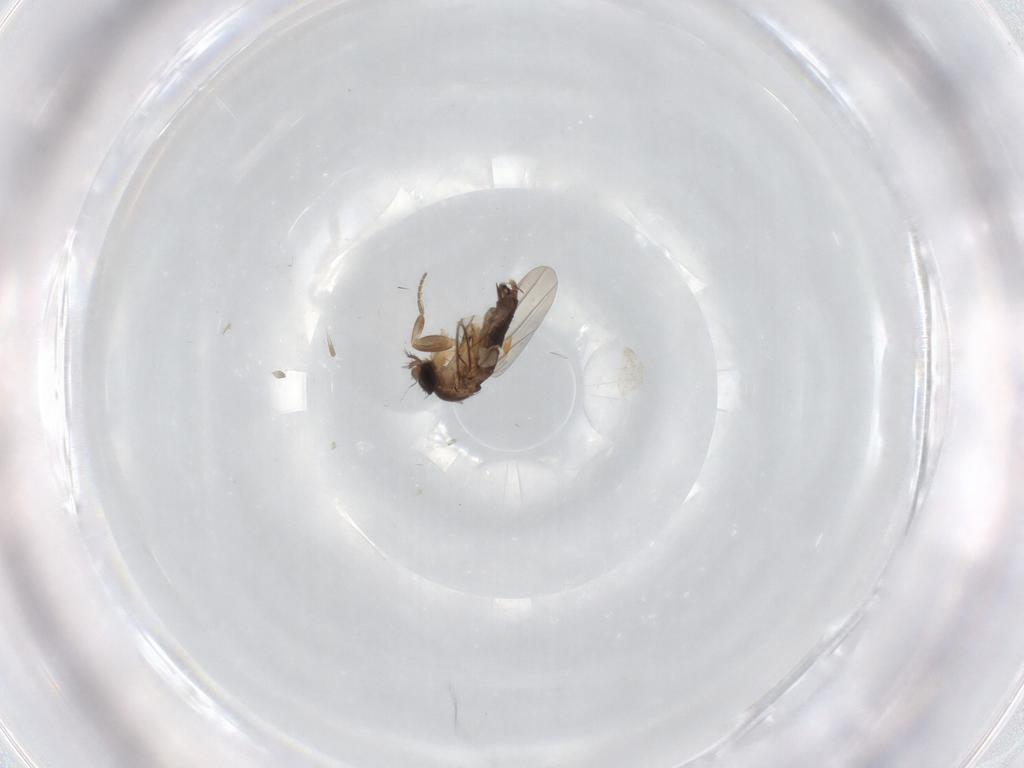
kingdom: Animalia
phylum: Arthropoda
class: Insecta
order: Diptera
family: Phoridae
